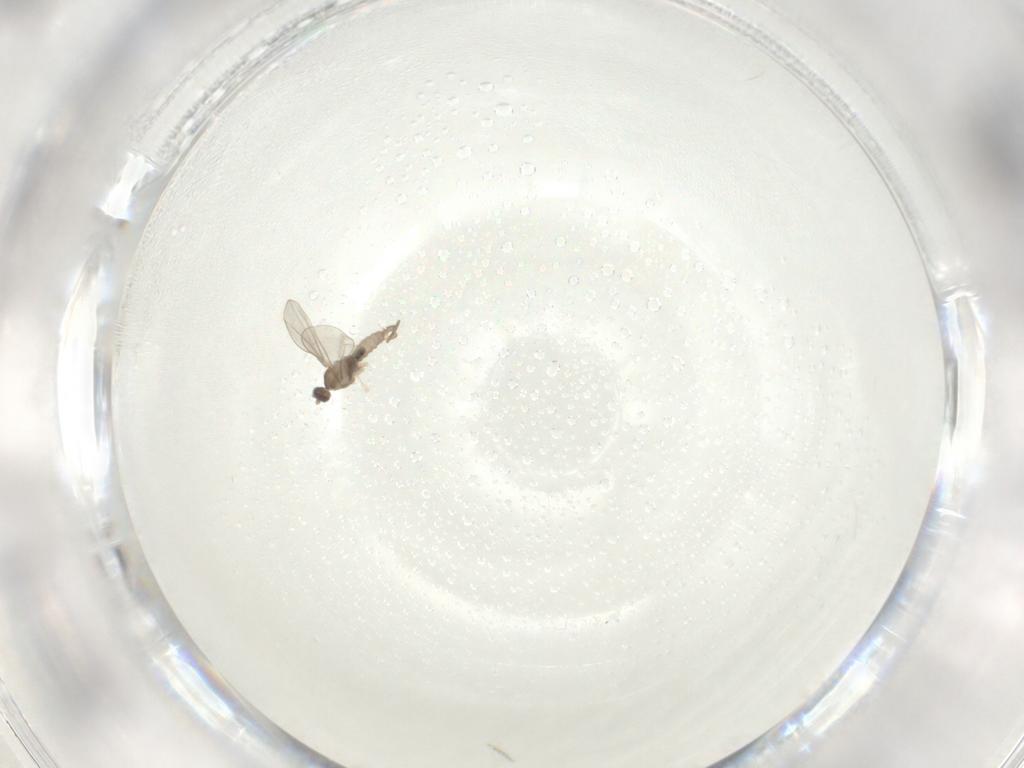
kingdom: Animalia
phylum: Arthropoda
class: Insecta
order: Diptera
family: Cecidomyiidae
